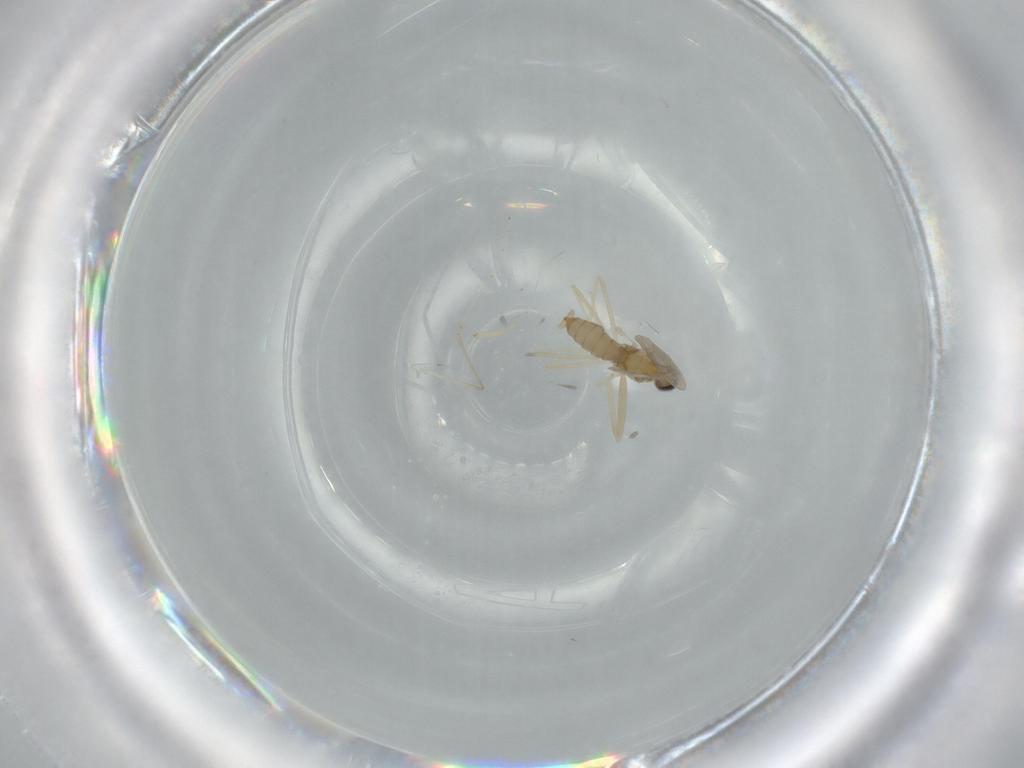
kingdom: Animalia
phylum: Arthropoda
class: Insecta
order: Diptera
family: Cecidomyiidae
